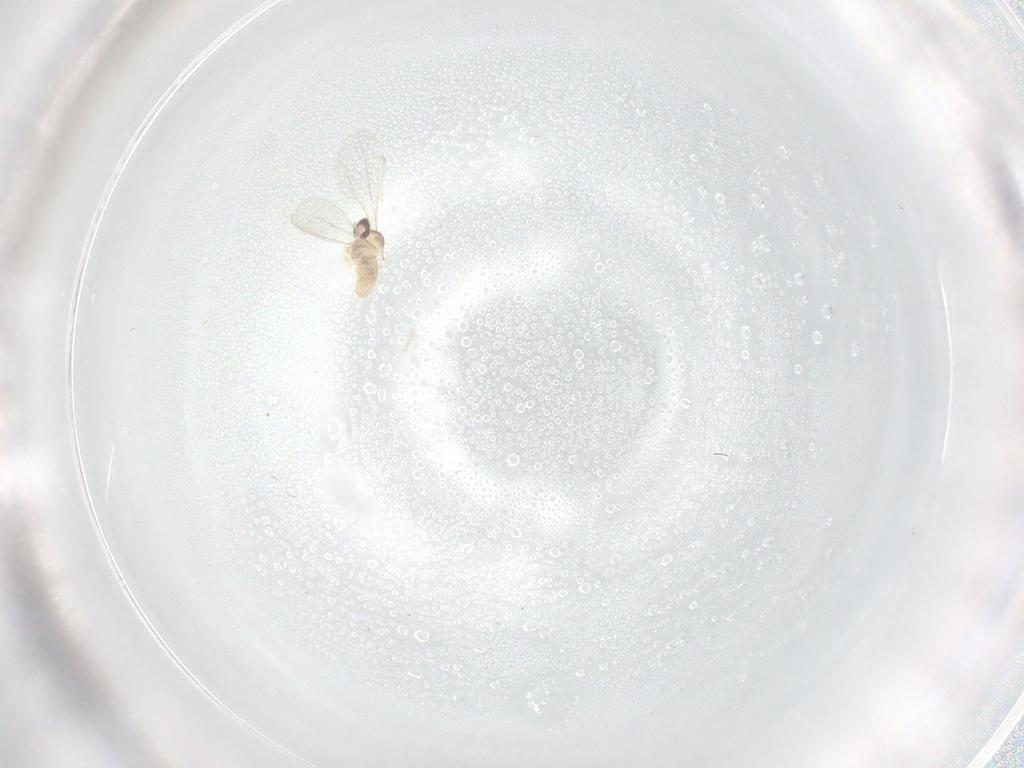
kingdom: Animalia
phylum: Arthropoda
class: Insecta
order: Diptera
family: Cecidomyiidae
